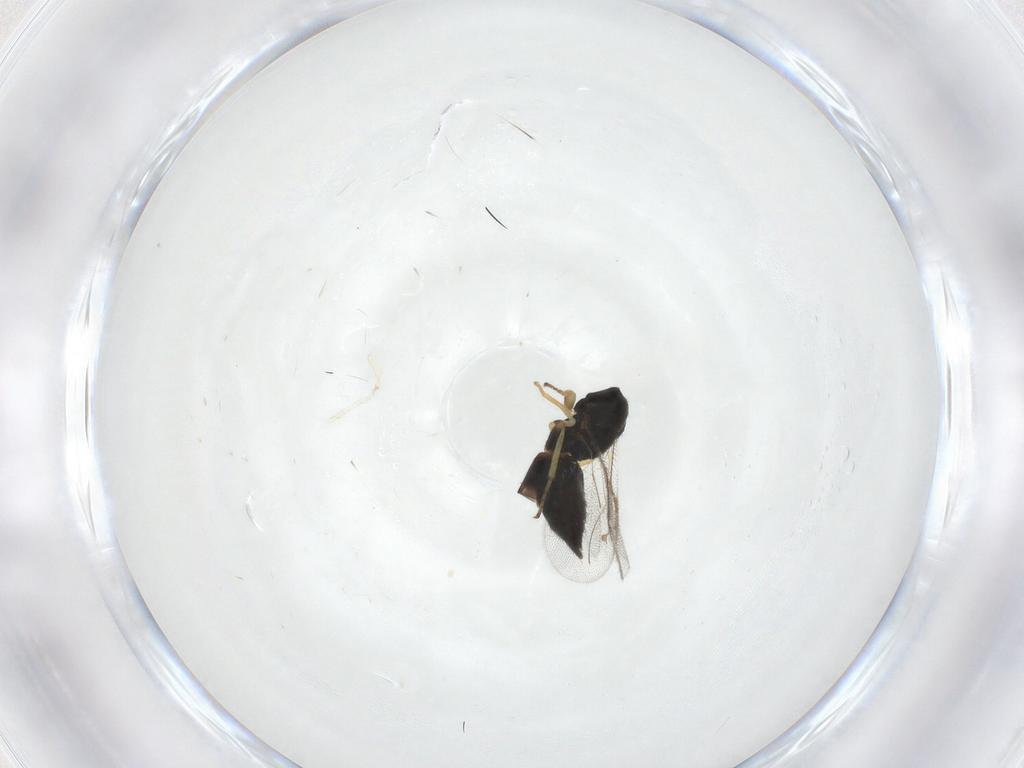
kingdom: Animalia
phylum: Arthropoda
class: Insecta
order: Hymenoptera
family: Pirenidae
